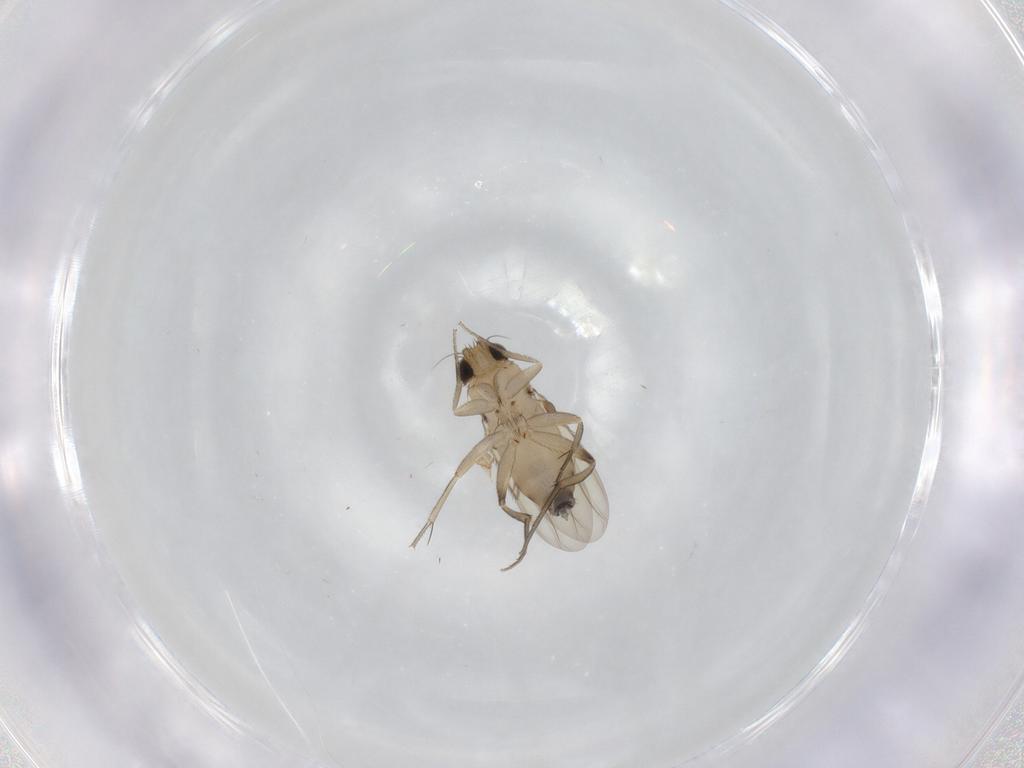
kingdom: Animalia
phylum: Arthropoda
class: Insecta
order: Diptera
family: Phoridae
